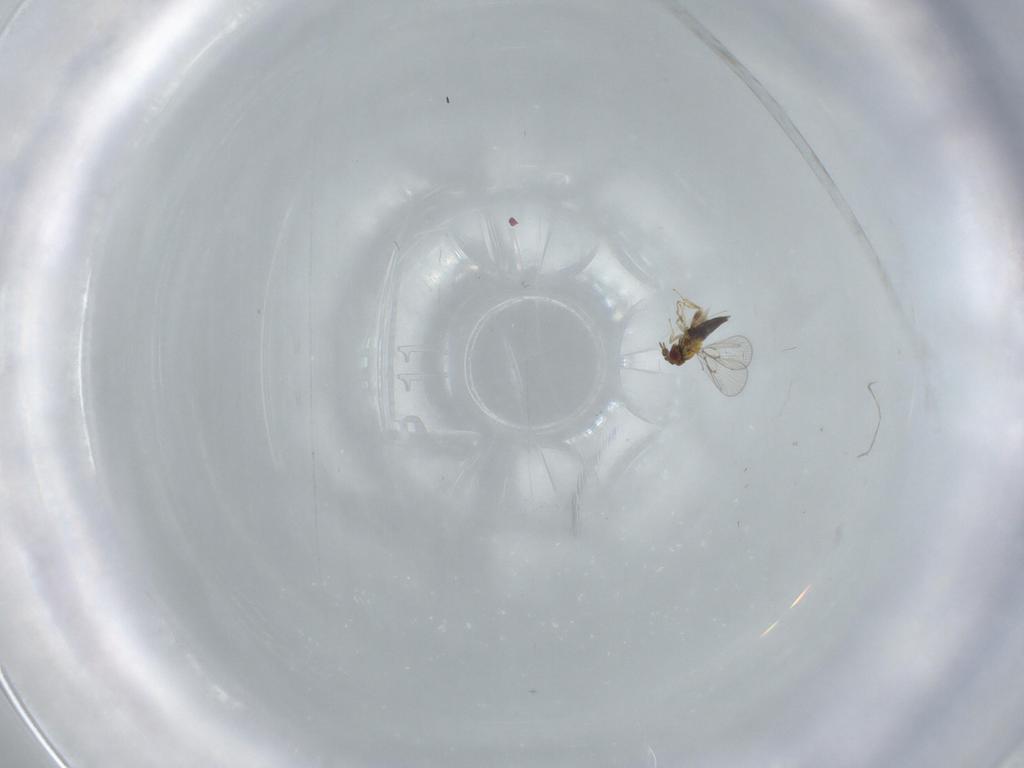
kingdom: Animalia
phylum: Arthropoda
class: Insecta
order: Hymenoptera
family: Trichogrammatidae
